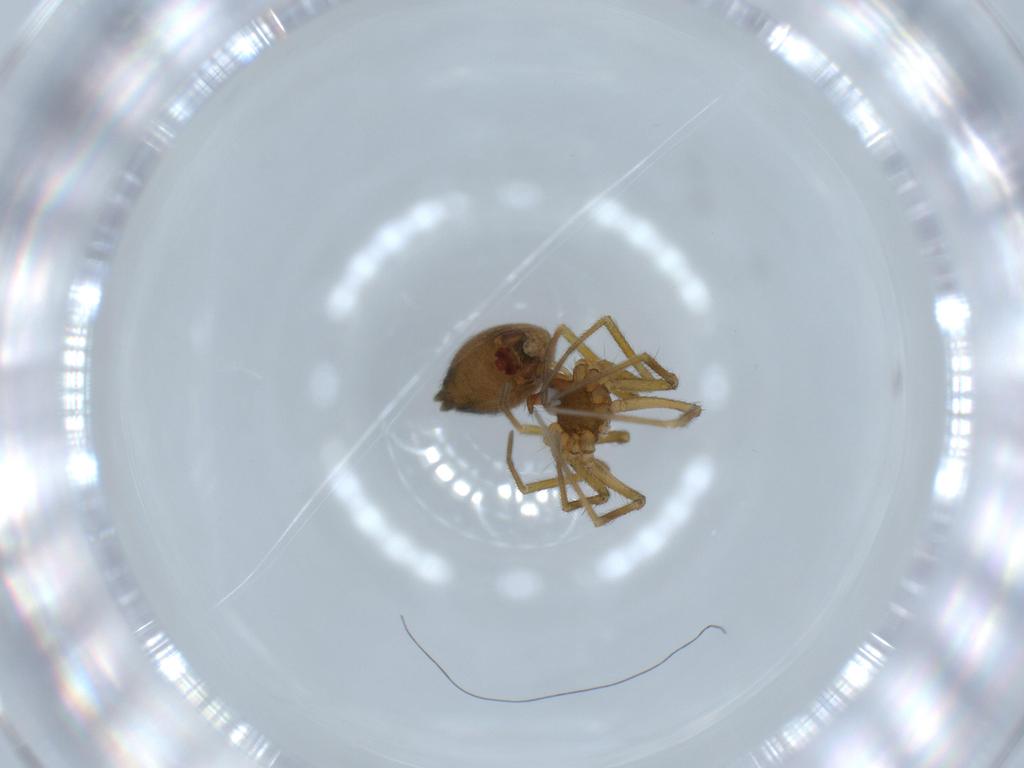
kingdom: Animalia
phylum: Arthropoda
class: Arachnida
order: Araneae
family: Linyphiidae
